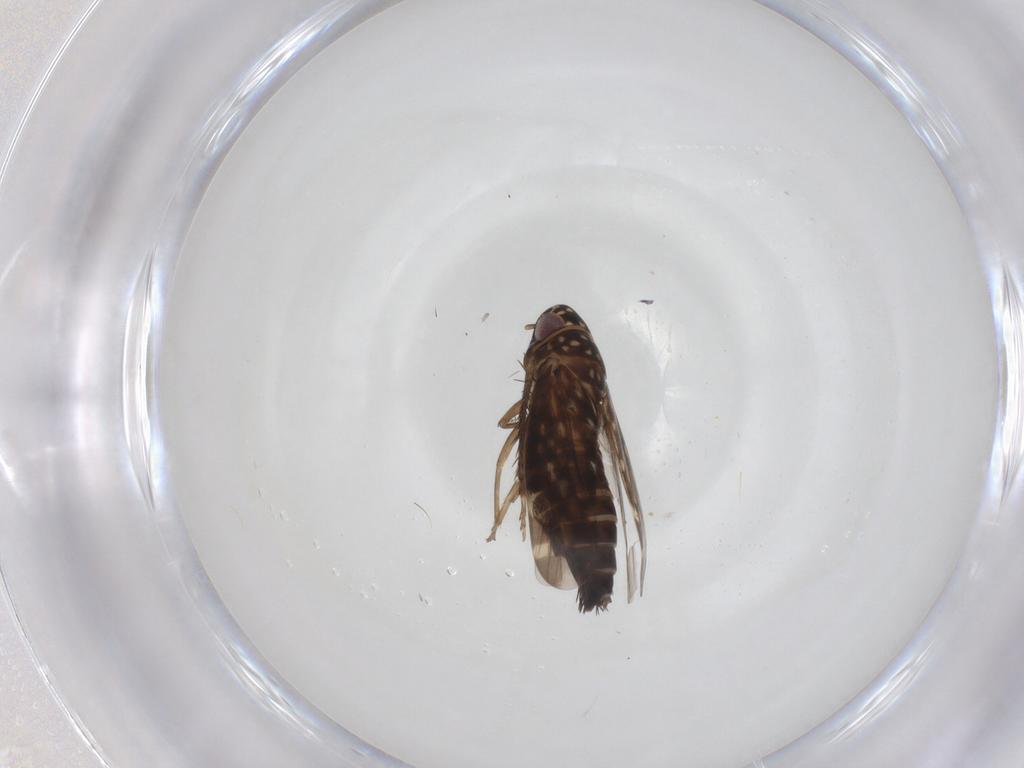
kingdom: Animalia
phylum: Arthropoda
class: Insecta
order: Hemiptera
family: Cicadellidae
